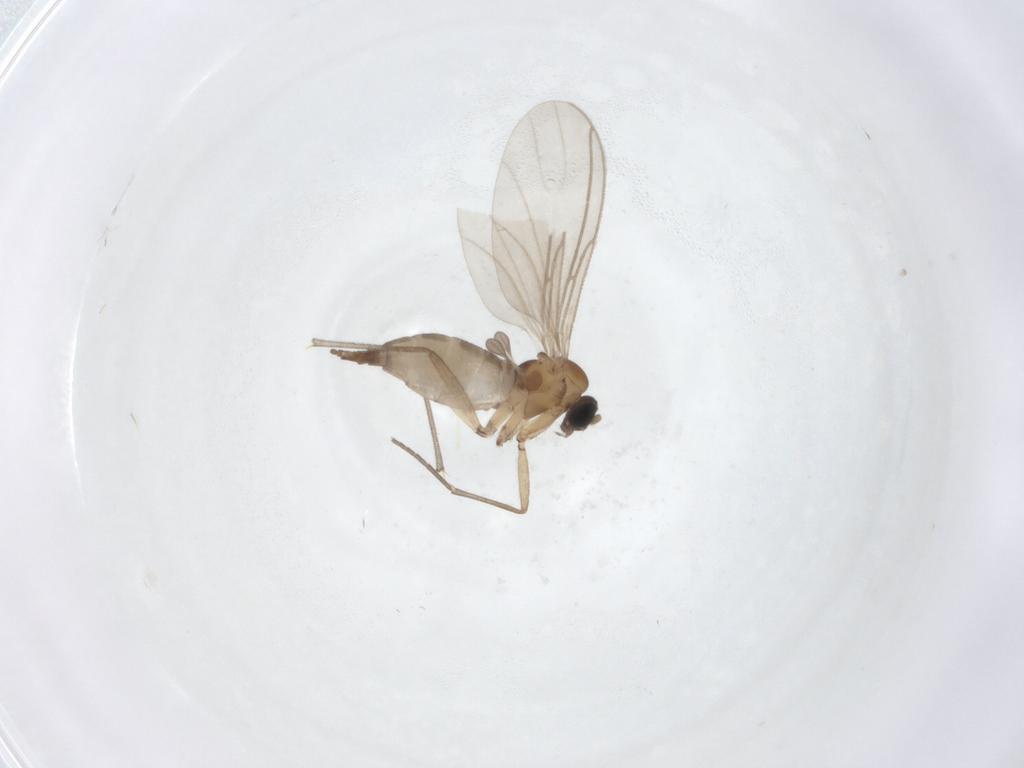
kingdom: Animalia
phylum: Arthropoda
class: Insecta
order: Diptera
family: Sciaridae
